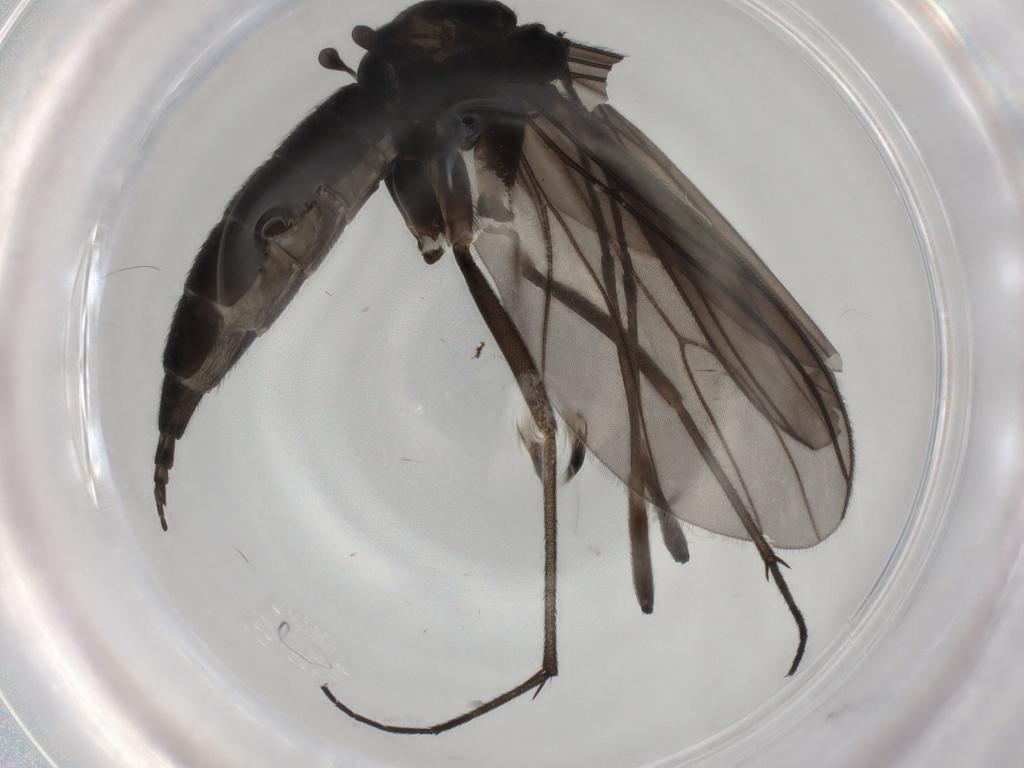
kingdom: Animalia
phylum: Arthropoda
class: Insecta
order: Diptera
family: Sciaridae
